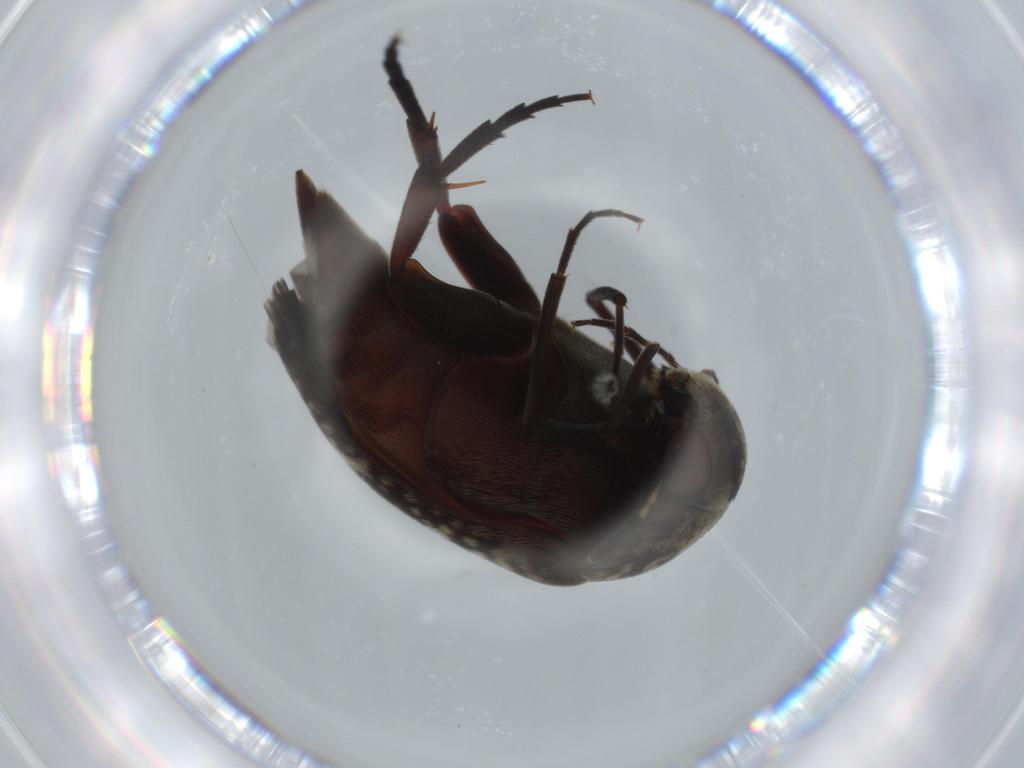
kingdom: Animalia
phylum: Arthropoda
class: Insecta
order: Coleoptera
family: Chrysomelidae
